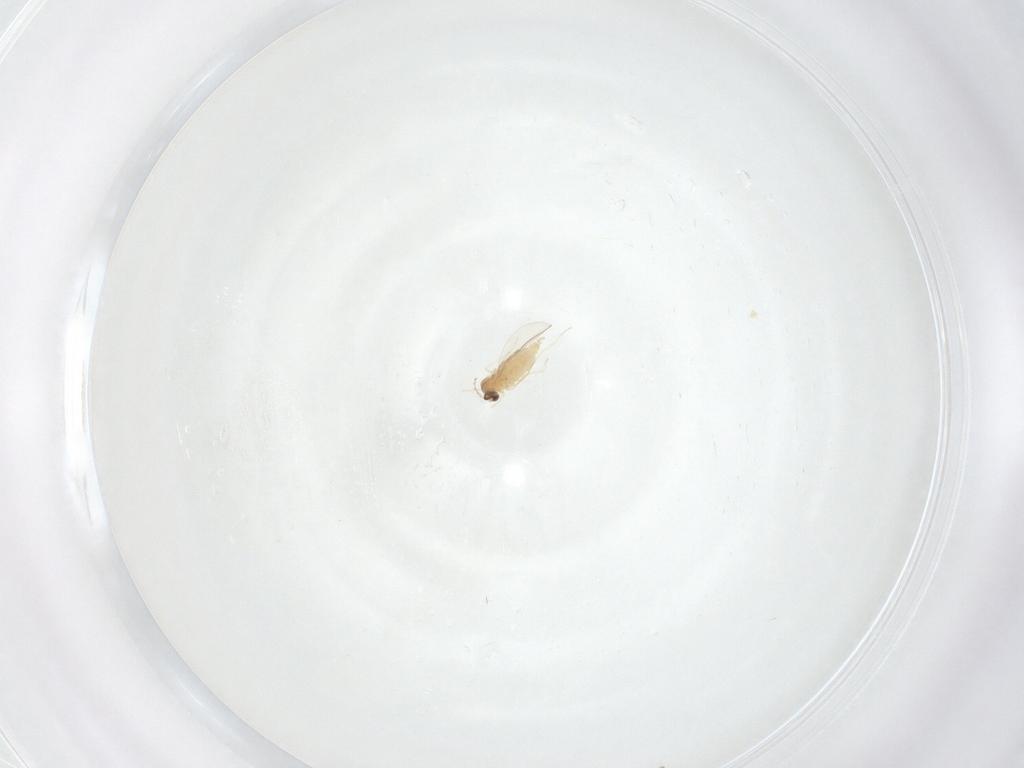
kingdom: Animalia
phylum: Arthropoda
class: Insecta
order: Diptera
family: Cecidomyiidae
